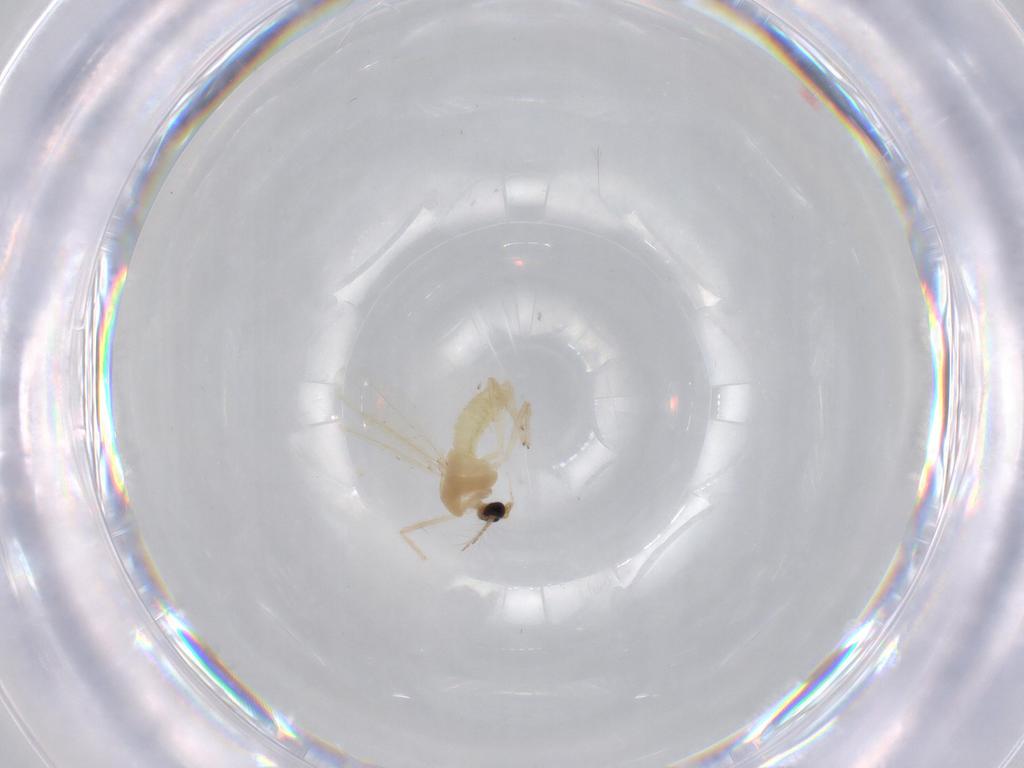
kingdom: Animalia
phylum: Arthropoda
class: Insecta
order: Diptera
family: Chironomidae
